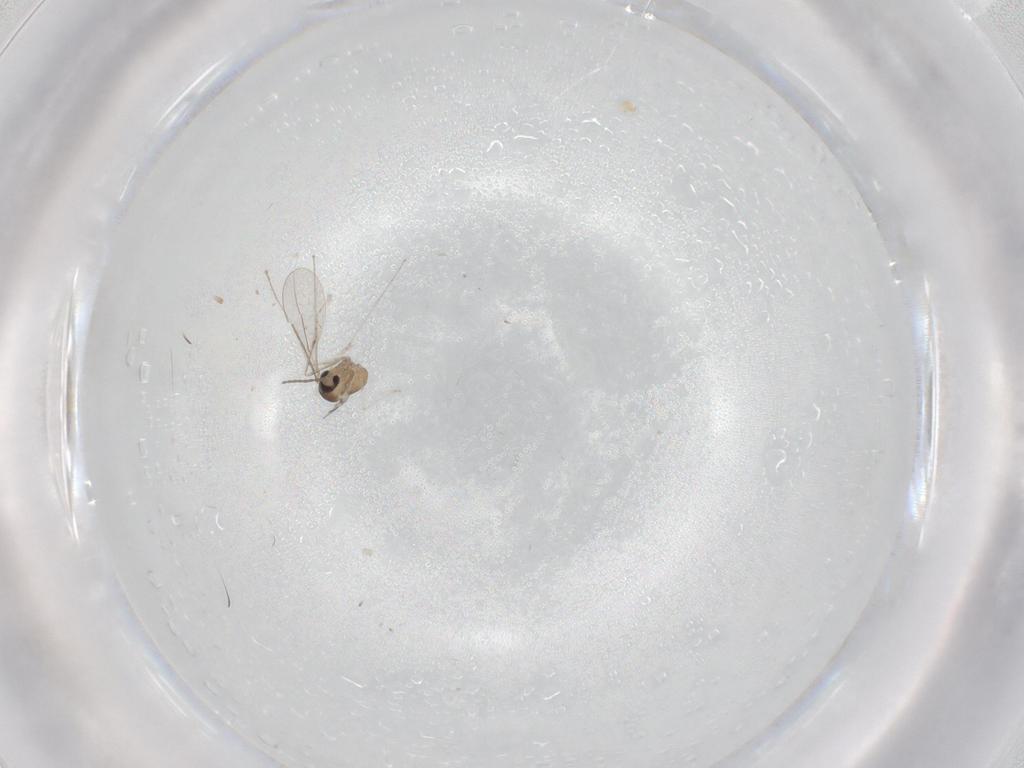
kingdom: Animalia
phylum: Arthropoda
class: Insecta
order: Diptera
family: Cecidomyiidae
